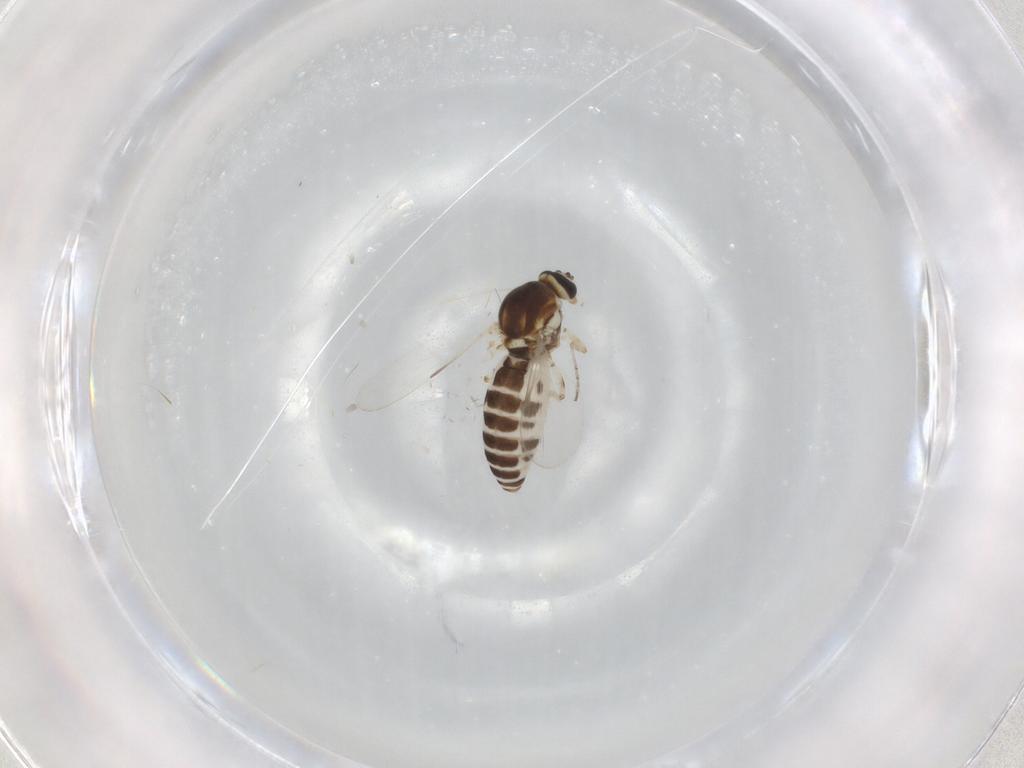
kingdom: Animalia
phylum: Arthropoda
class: Insecta
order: Diptera
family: Ceratopogonidae
